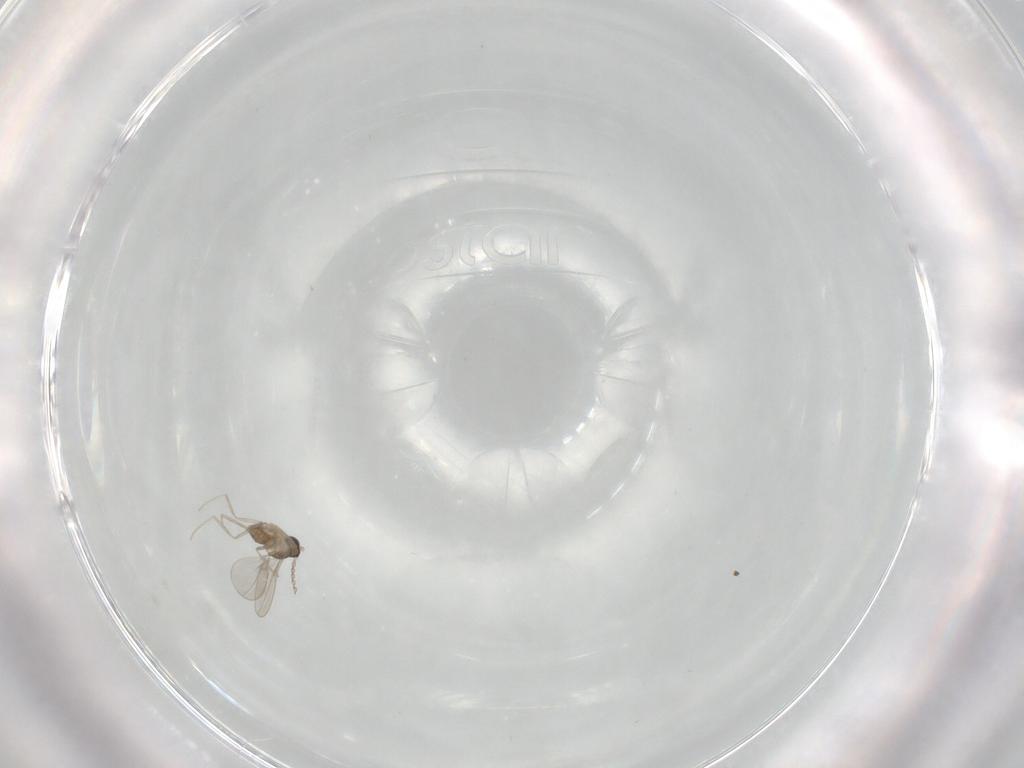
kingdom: Animalia
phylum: Arthropoda
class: Insecta
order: Diptera
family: Cecidomyiidae
